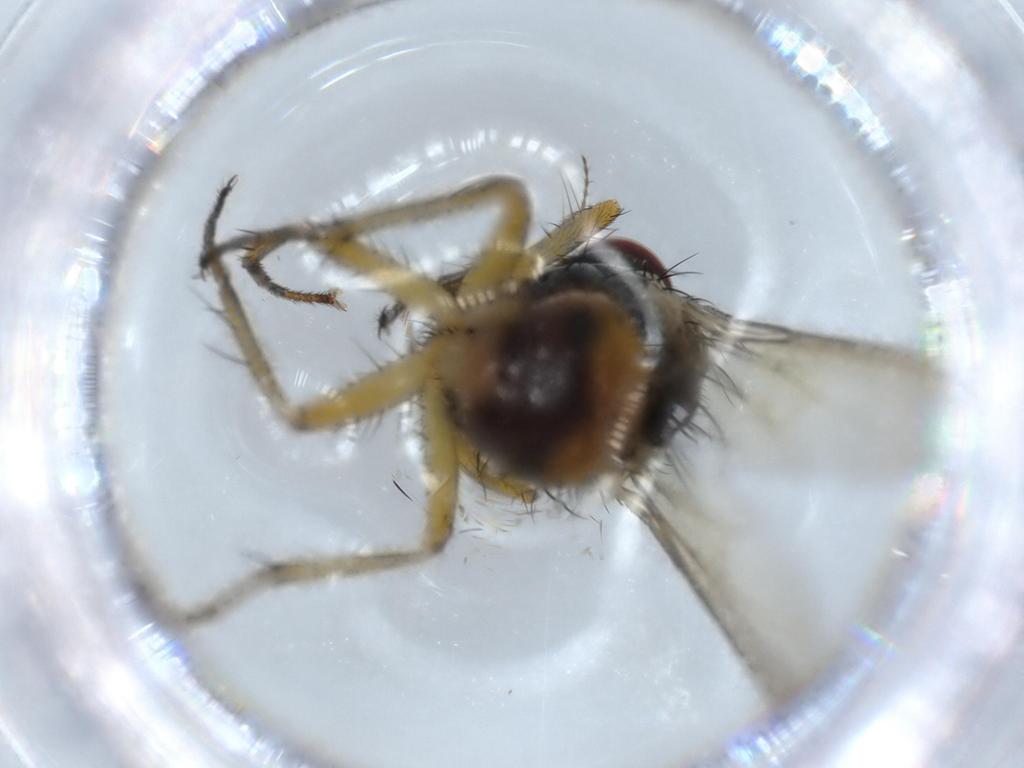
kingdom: Animalia
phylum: Arthropoda
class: Insecta
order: Diptera
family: Muscidae
